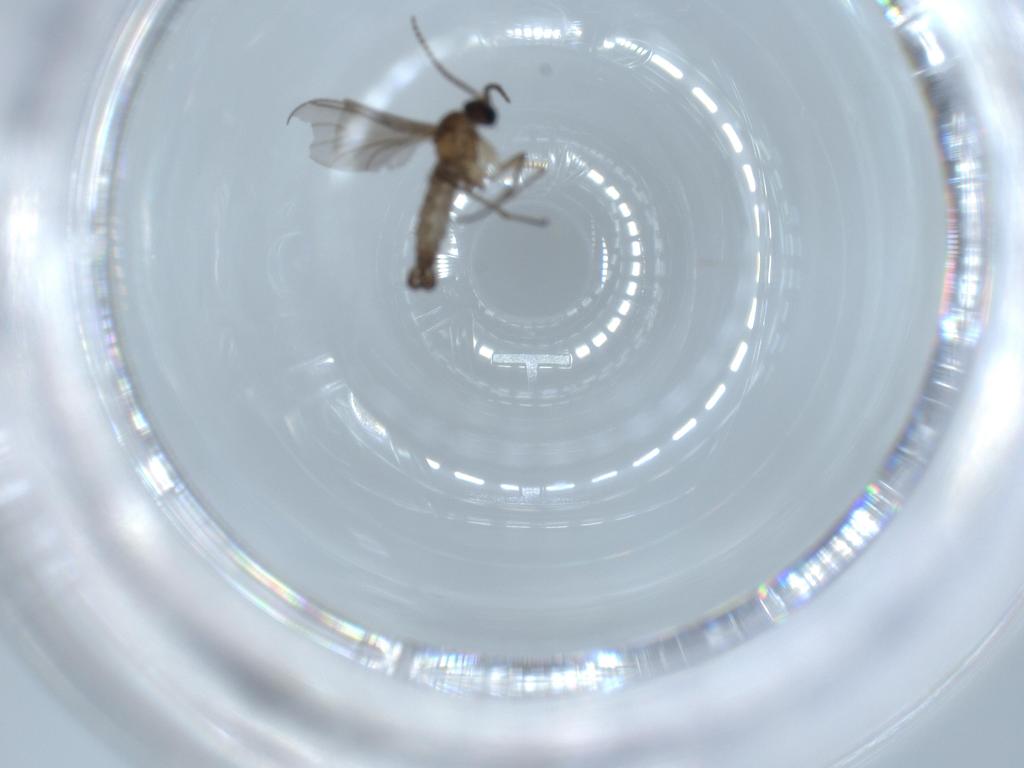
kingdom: Animalia
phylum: Arthropoda
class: Insecta
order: Diptera
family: Sciaridae
